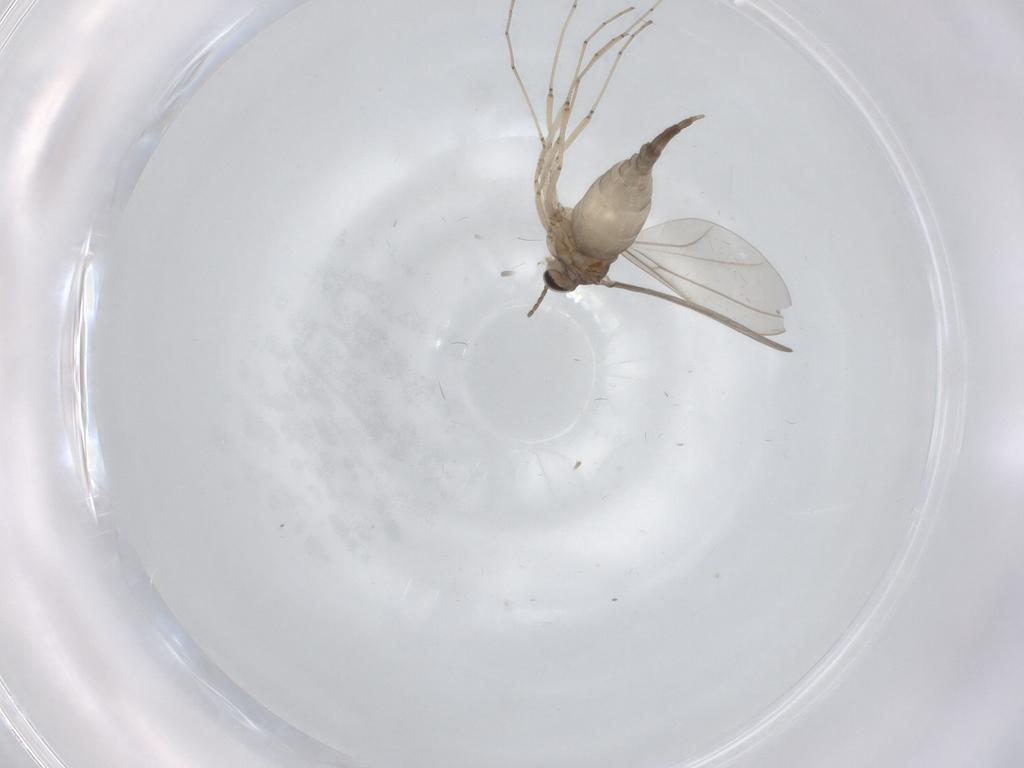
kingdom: Animalia
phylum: Arthropoda
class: Insecta
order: Diptera
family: Cecidomyiidae
